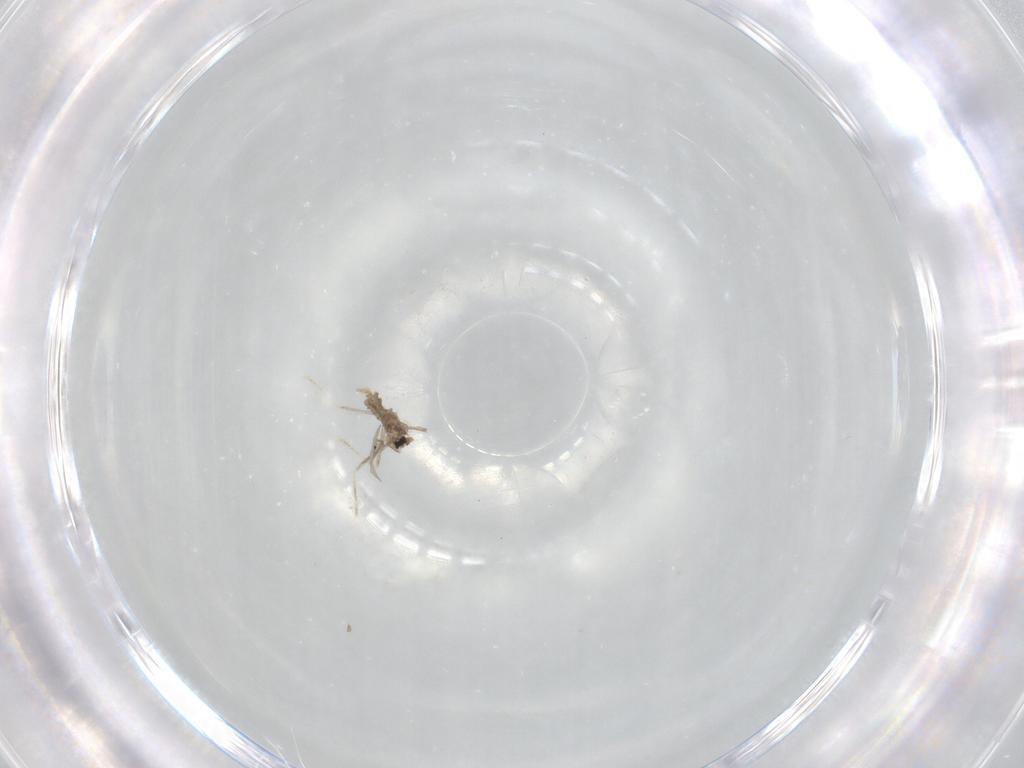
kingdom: Animalia
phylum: Arthropoda
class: Insecta
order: Diptera
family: Cecidomyiidae
